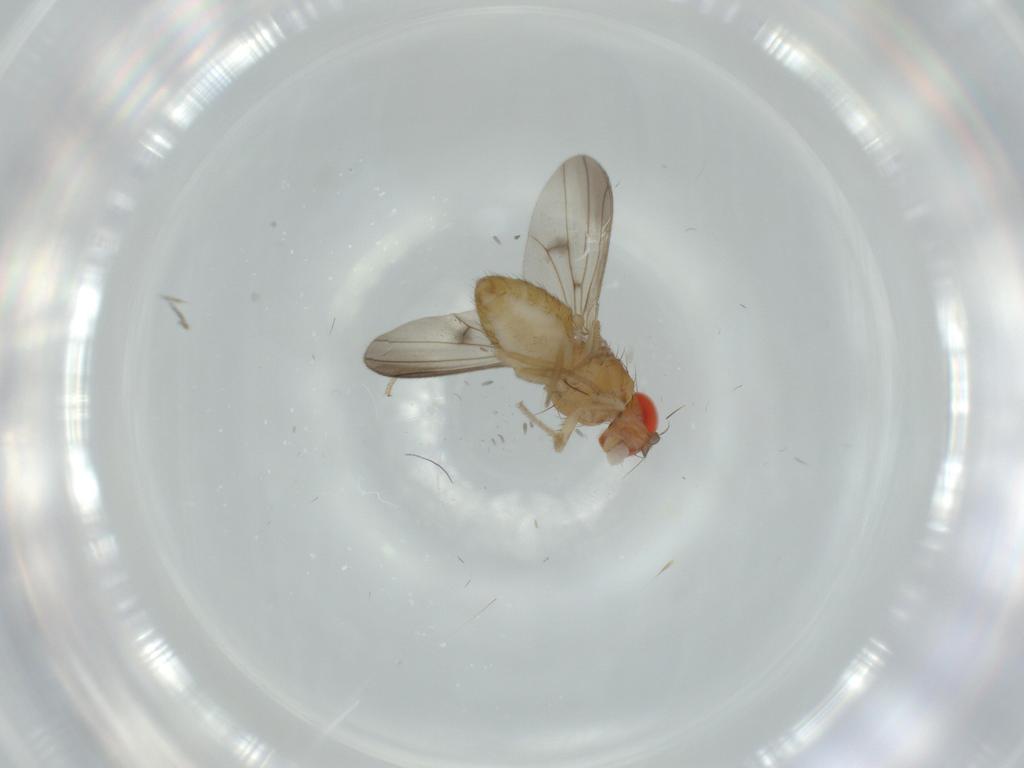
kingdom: Animalia
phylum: Arthropoda
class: Insecta
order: Diptera
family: Drosophilidae
